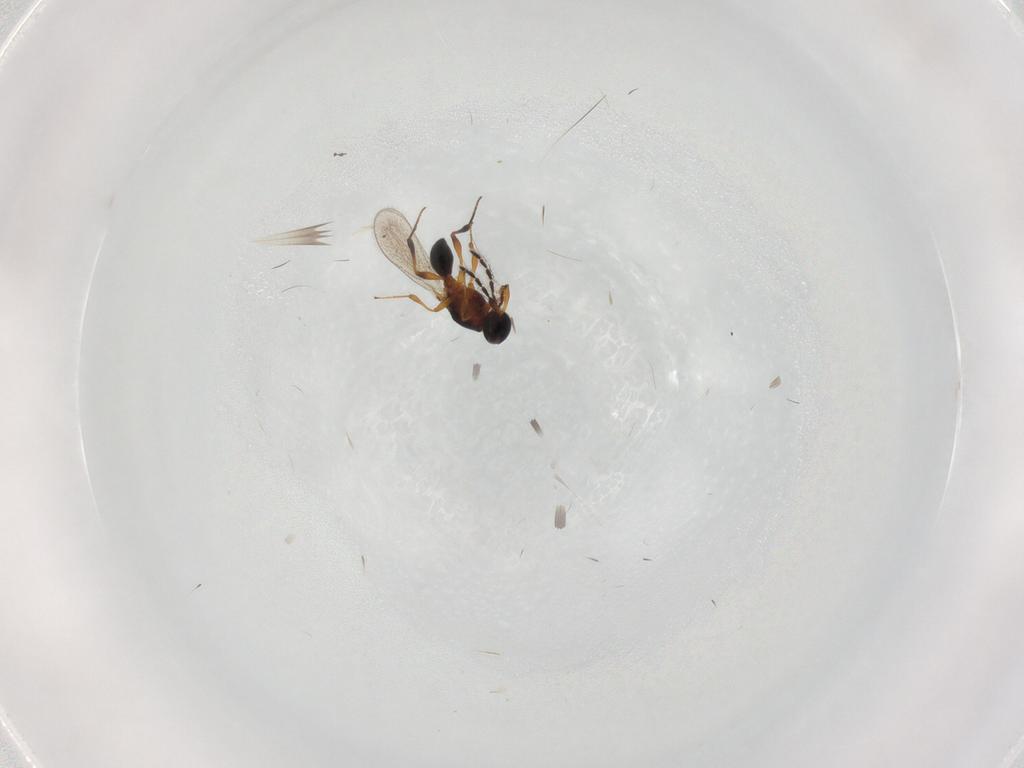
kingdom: Animalia
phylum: Arthropoda
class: Insecta
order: Hymenoptera
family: Platygastridae
